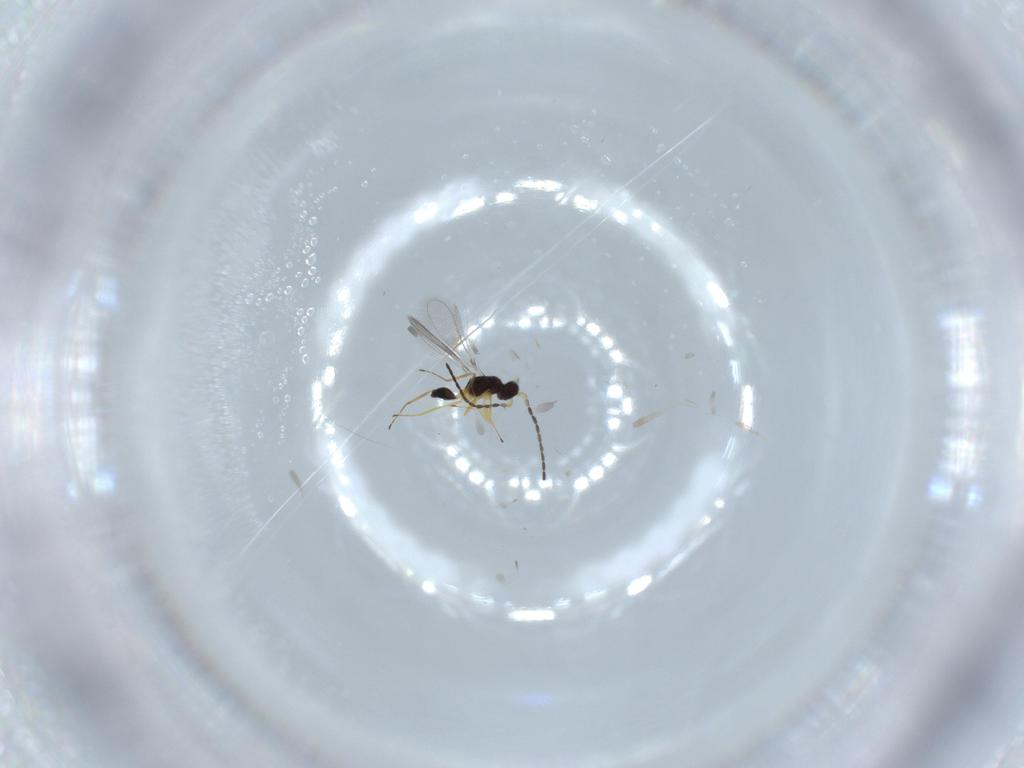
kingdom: Animalia
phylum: Arthropoda
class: Insecta
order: Hymenoptera
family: Mymaridae
